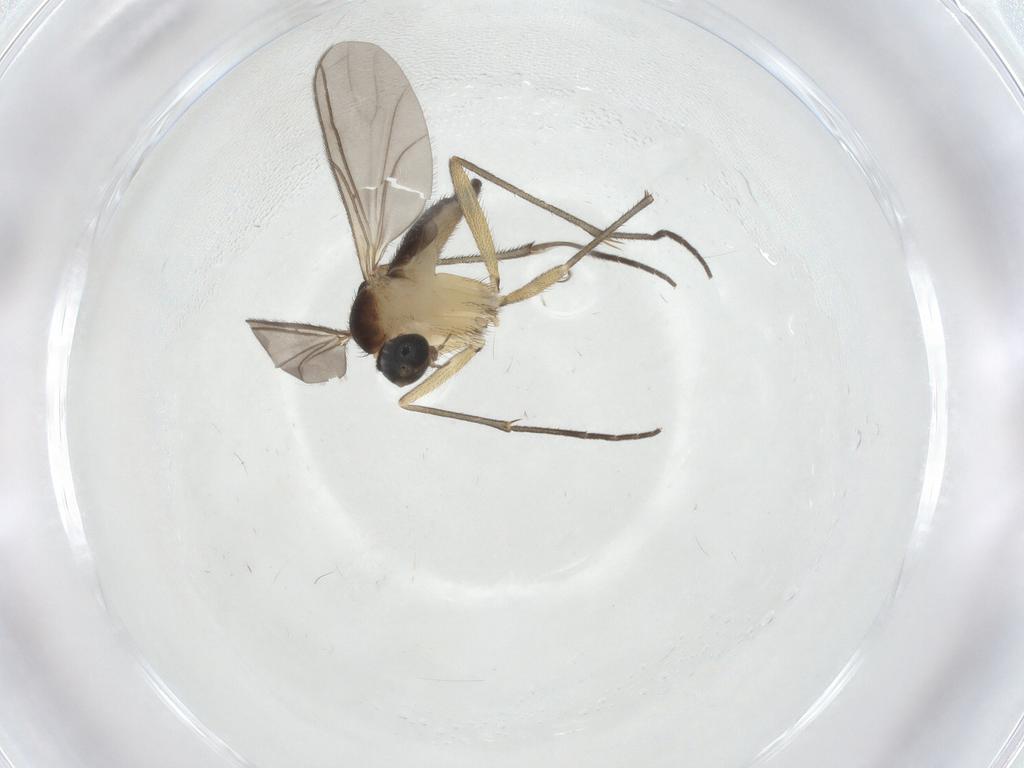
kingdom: Animalia
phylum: Arthropoda
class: Insecta
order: Diptera
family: Sciaridae
